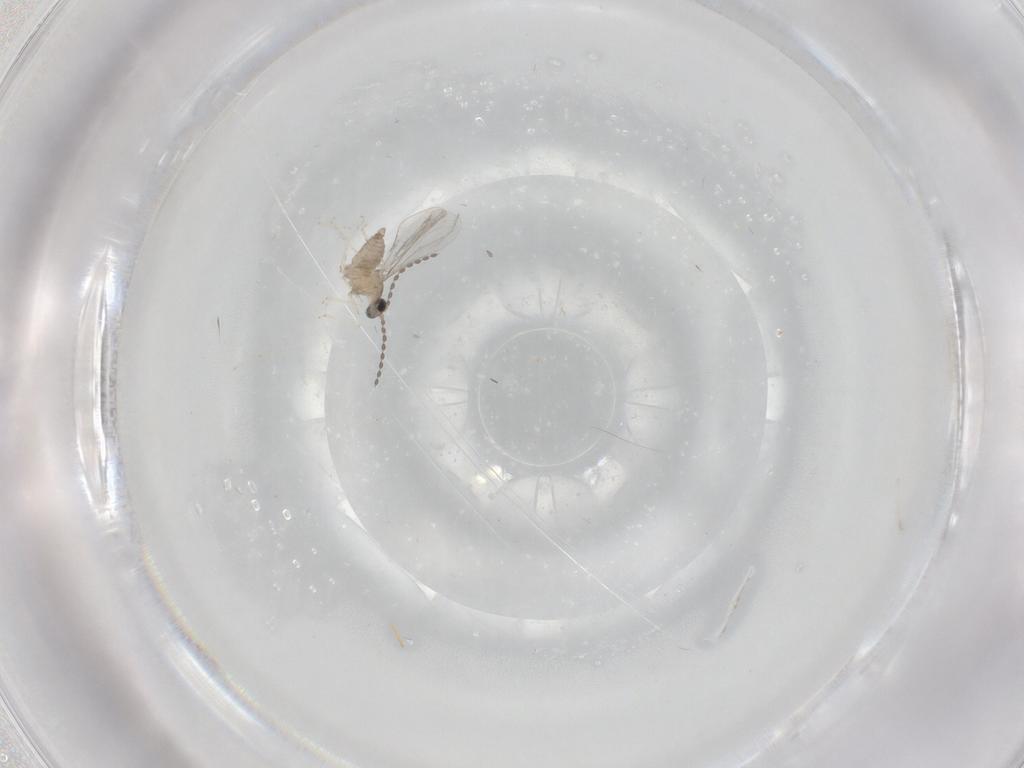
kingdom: Animalia
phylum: Arthropoda
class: Insecta
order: Diptera
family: Cecidomyiidae
